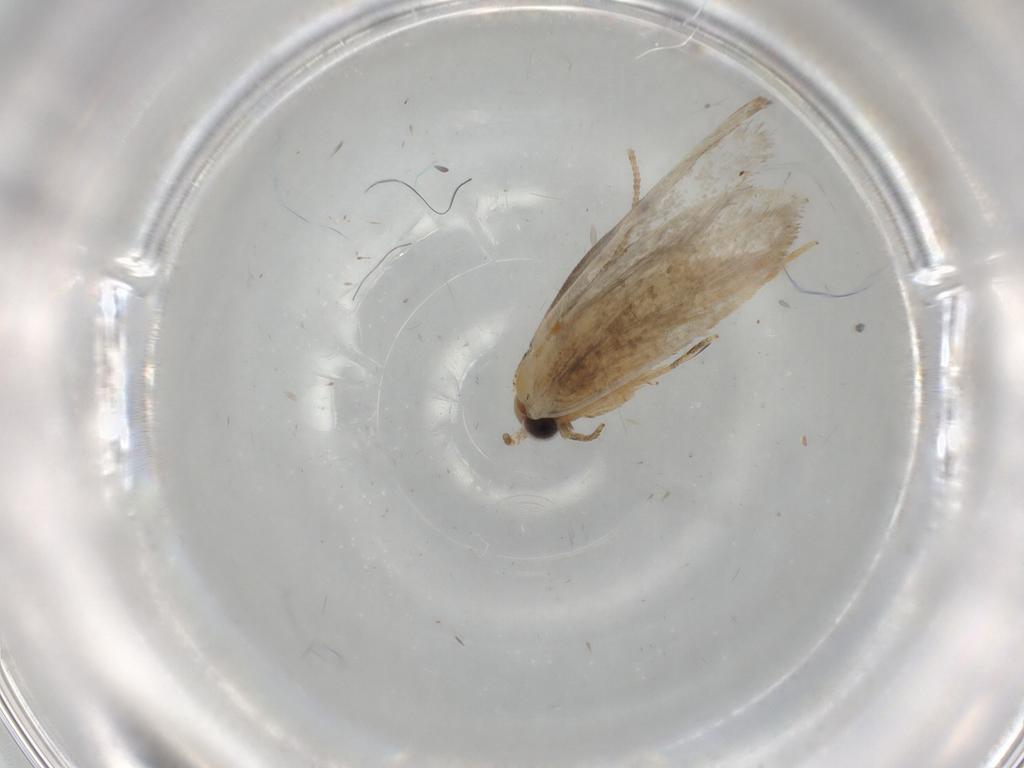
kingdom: Animalia
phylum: Arthropoda
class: Insecta
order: Lepidoptera
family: Tineidae
